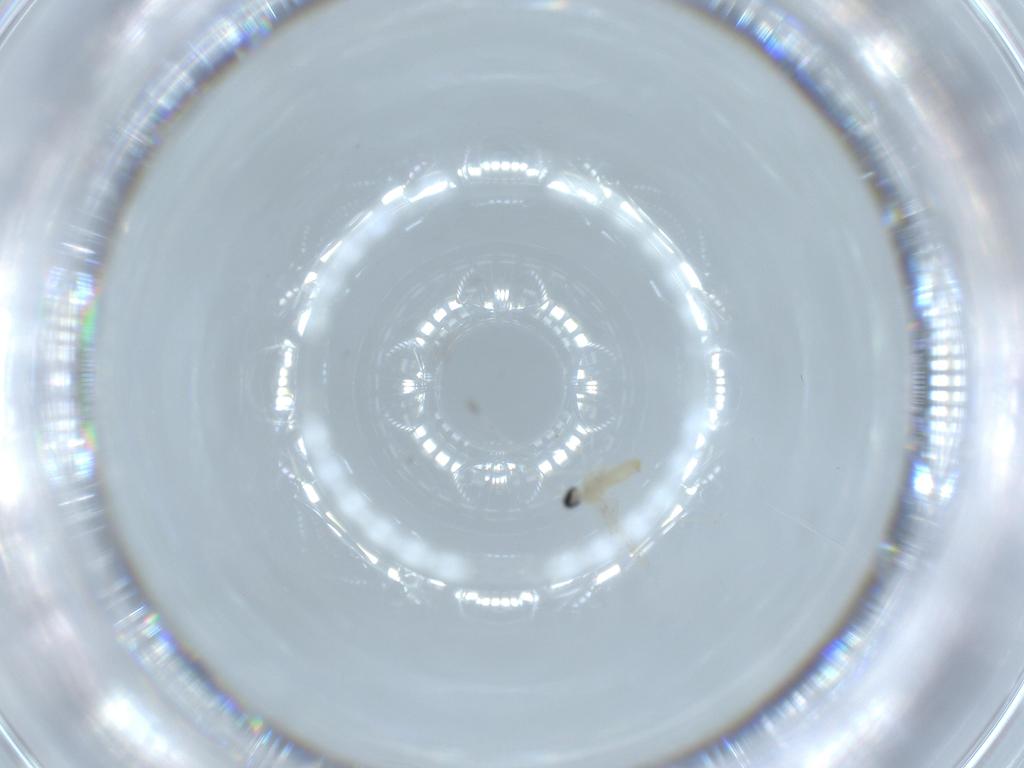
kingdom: Animalia
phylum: Arthropoda
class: Insecta
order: Diptera
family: Cecidomyiidae
